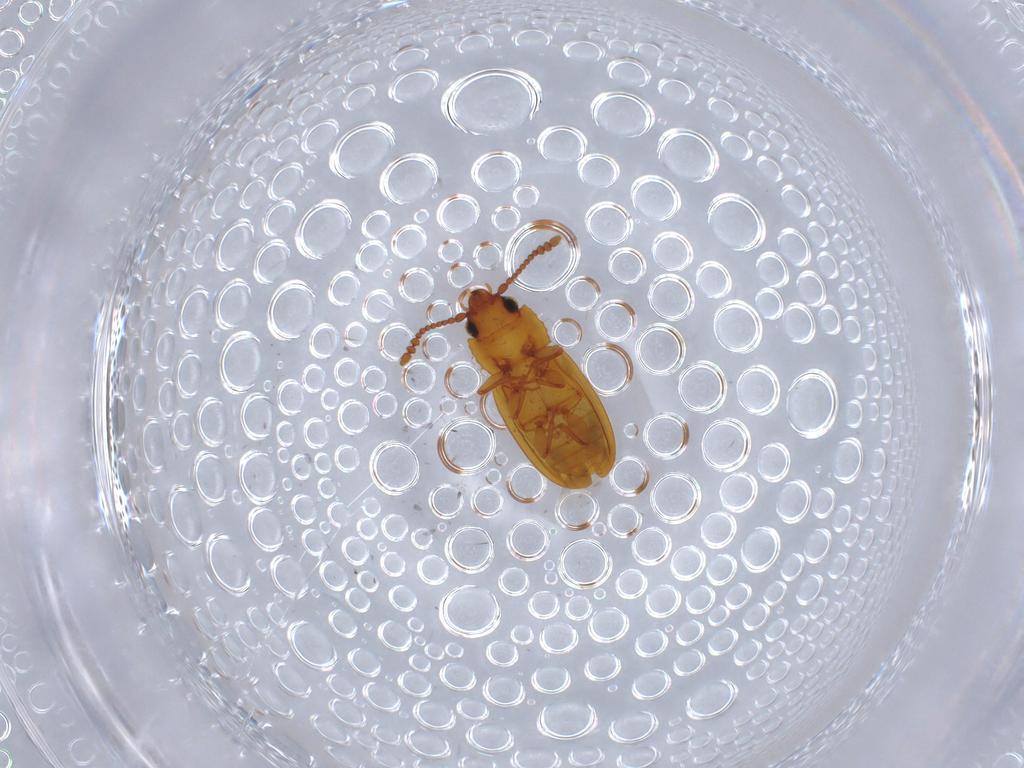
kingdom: Animalia
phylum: Arthropoda
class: Insecta
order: Coleoptera
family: Laemophloeidae
